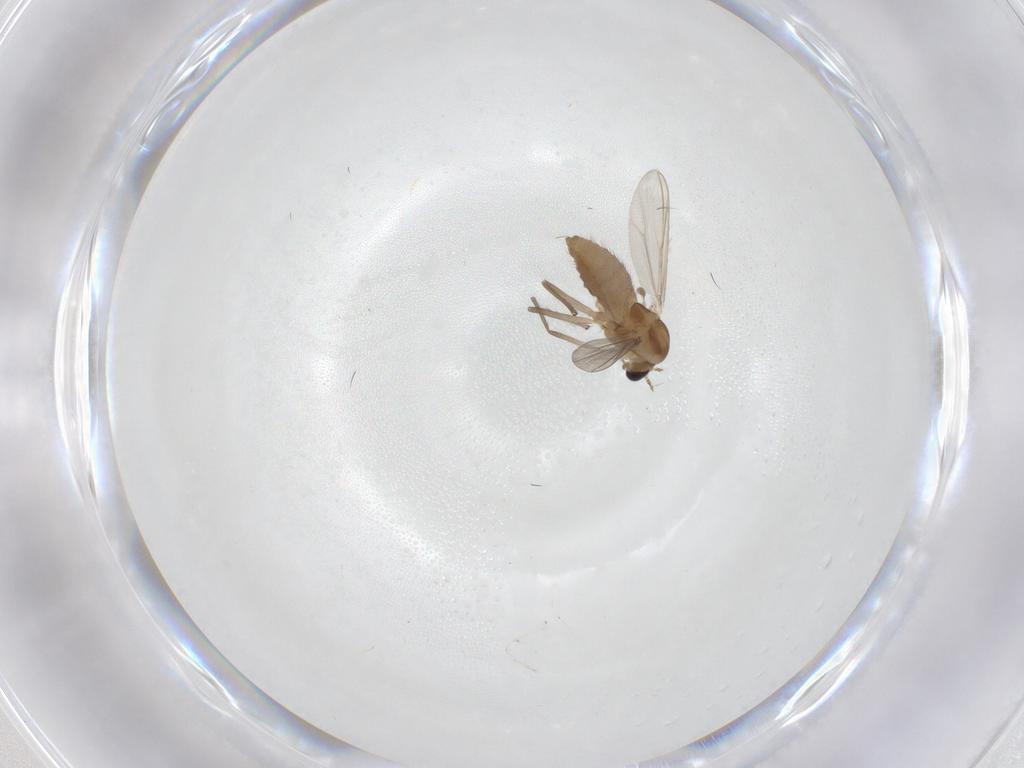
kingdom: Animalia
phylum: Arthropoda
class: Insecta
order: Diptera
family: Chironomidae
